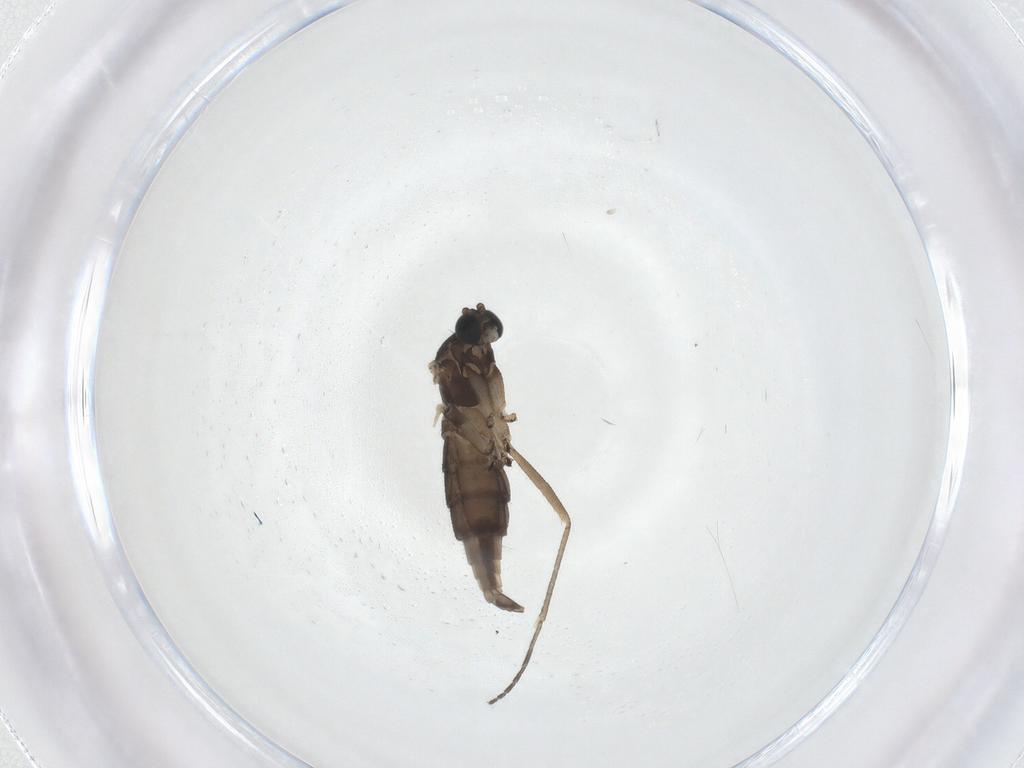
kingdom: Animalia
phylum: Arthropoda
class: Insecta
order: Diptera
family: Sciaridae
